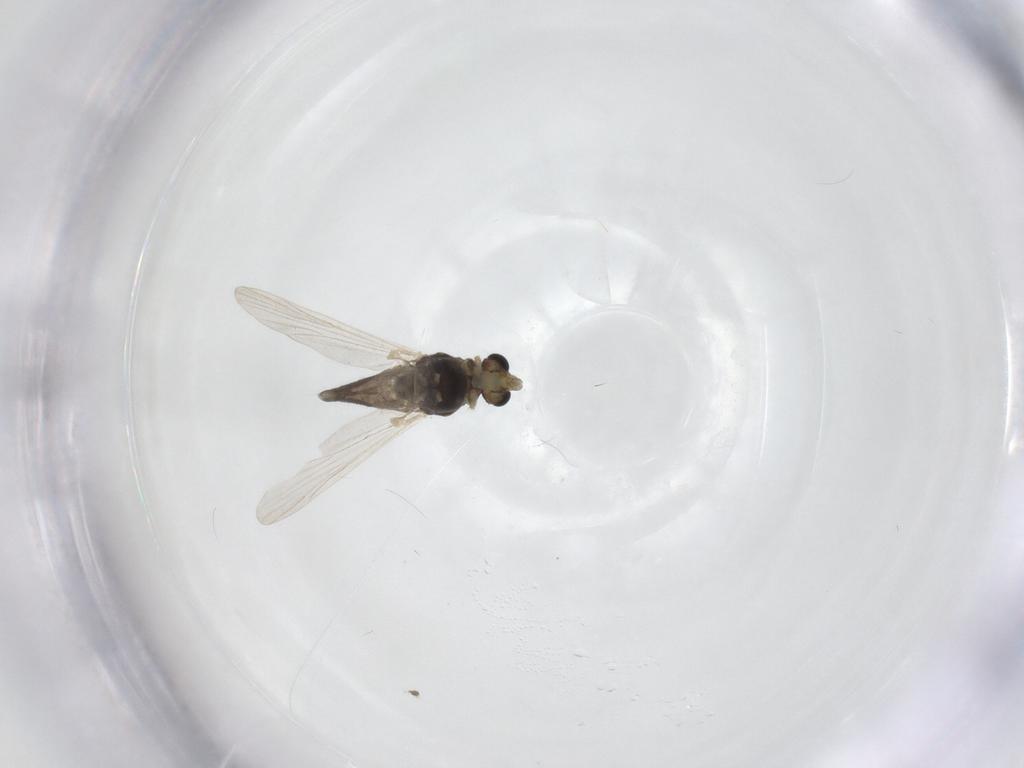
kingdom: Animalia
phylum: Arthropoda
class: Insecta
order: Diptera
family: Chironomidae
